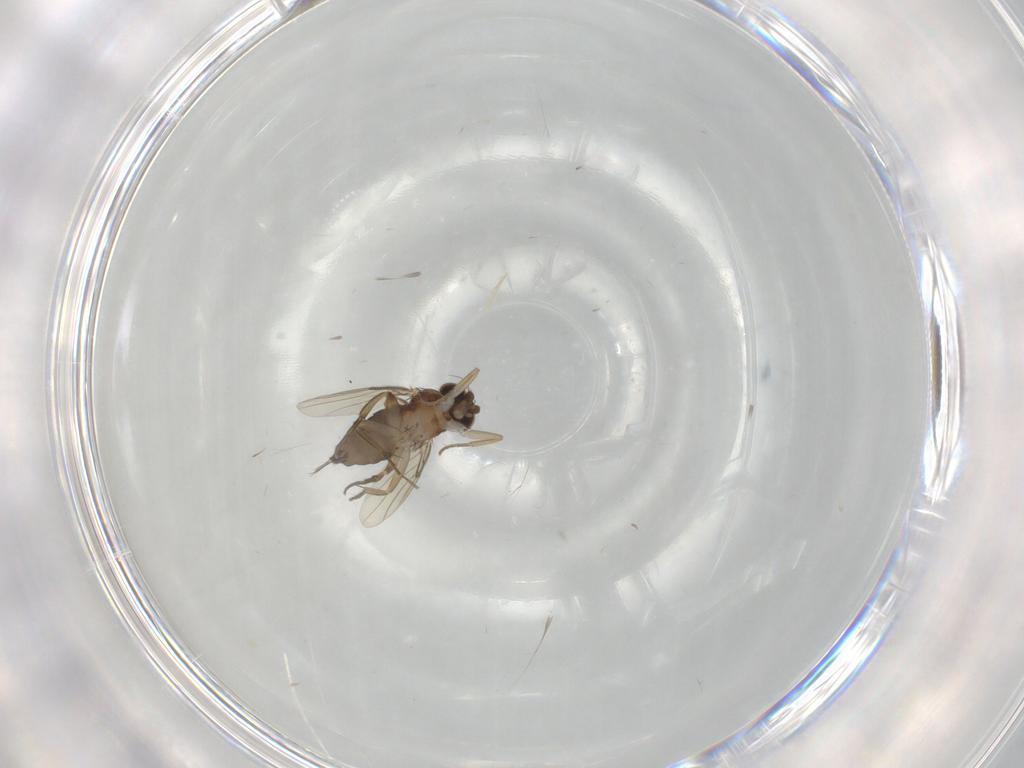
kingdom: Animalia
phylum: Arthropoda
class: Insecta
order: Diptera
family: Phoridae
